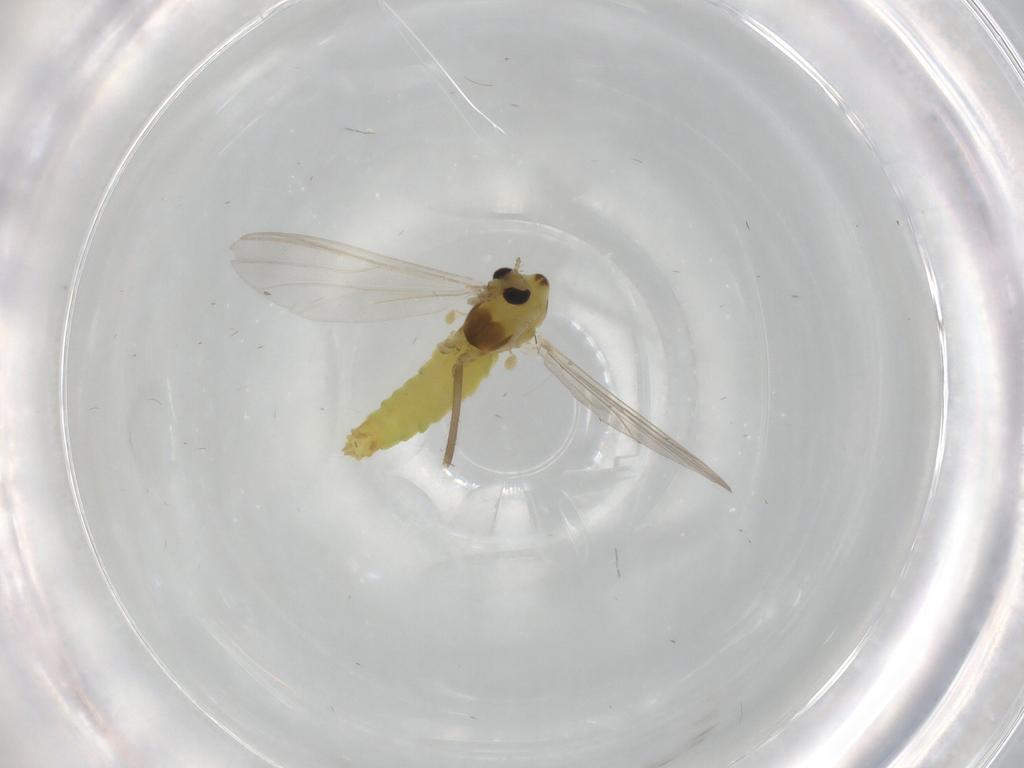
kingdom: Animalia
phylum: Arthropoda
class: Insecta
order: Diptera
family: Chironomidae
